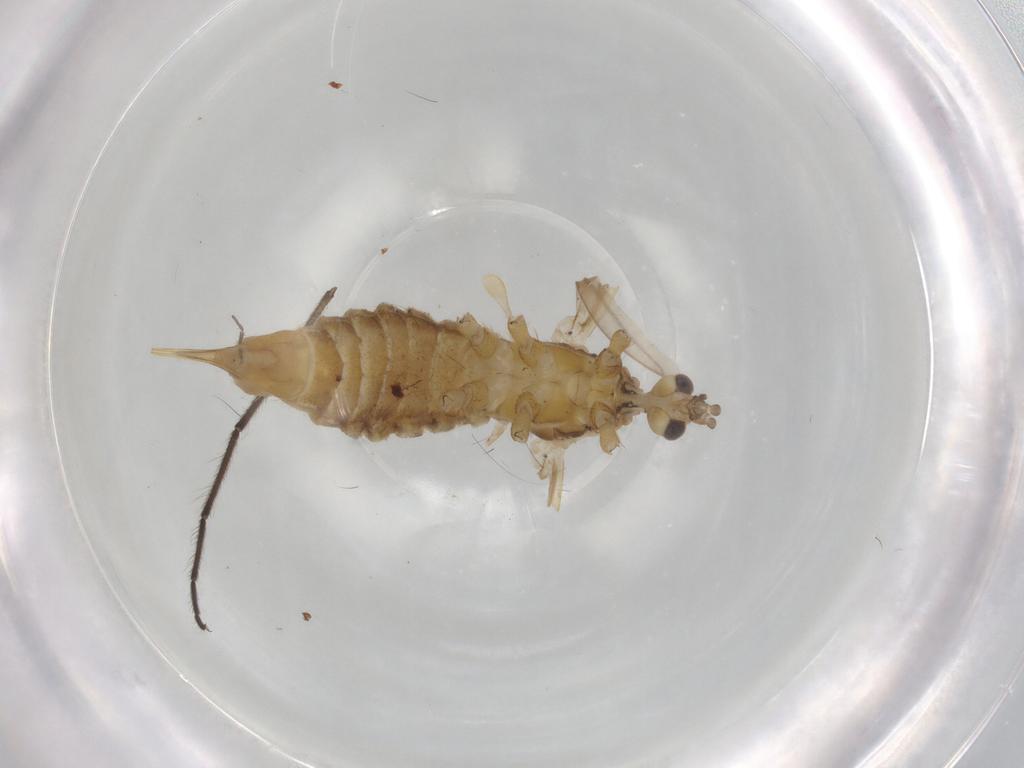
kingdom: Animalia
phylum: Arthropoda
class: Insecta
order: Diptera
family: Chironomidae
